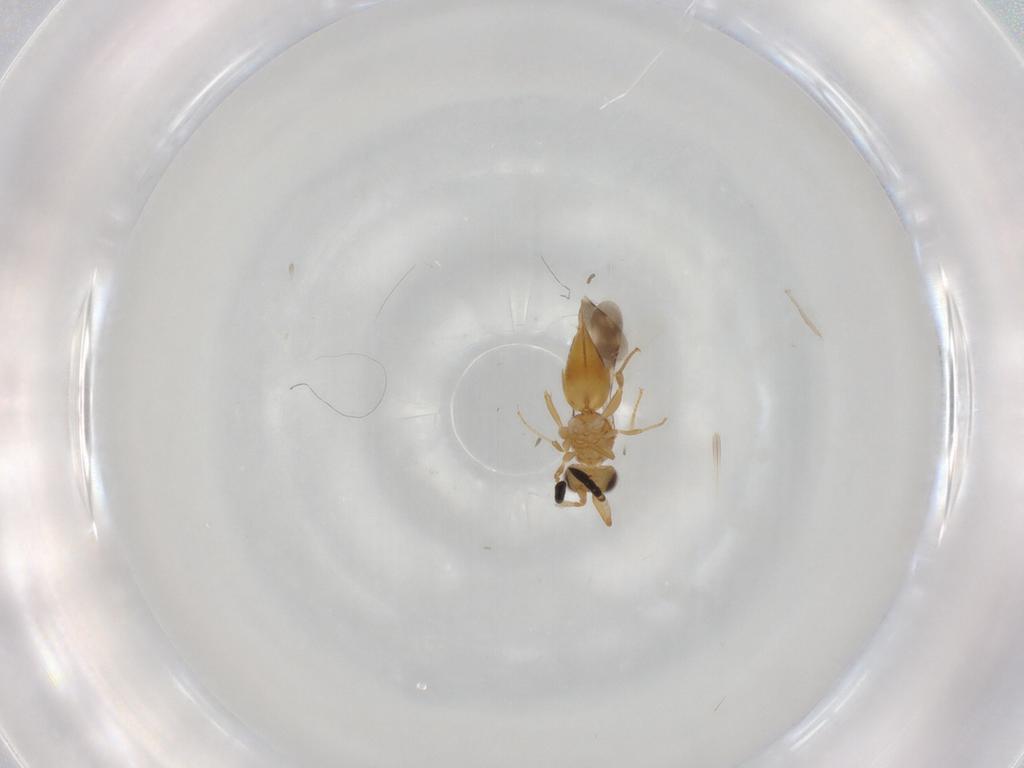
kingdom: Animalia
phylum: Arthropoda
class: Insecta
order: Hymenoptera
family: Ceraphronidae
